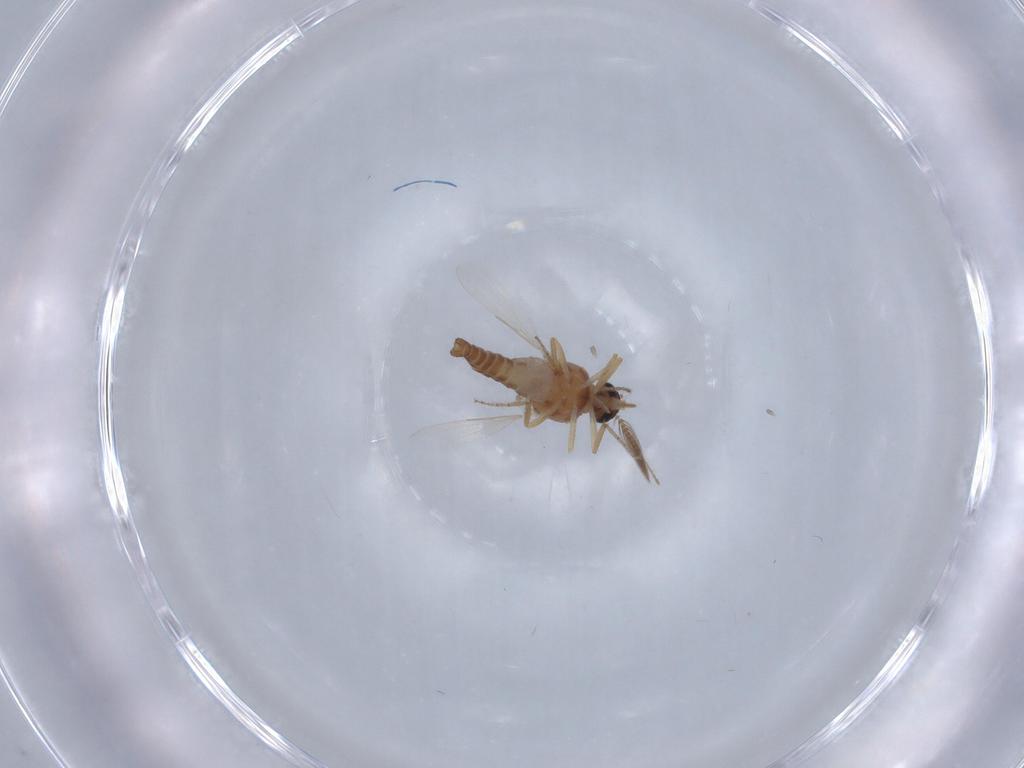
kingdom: Animalia
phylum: Arthropoda
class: Insecta
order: Diptera
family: Ceratopogonidae
